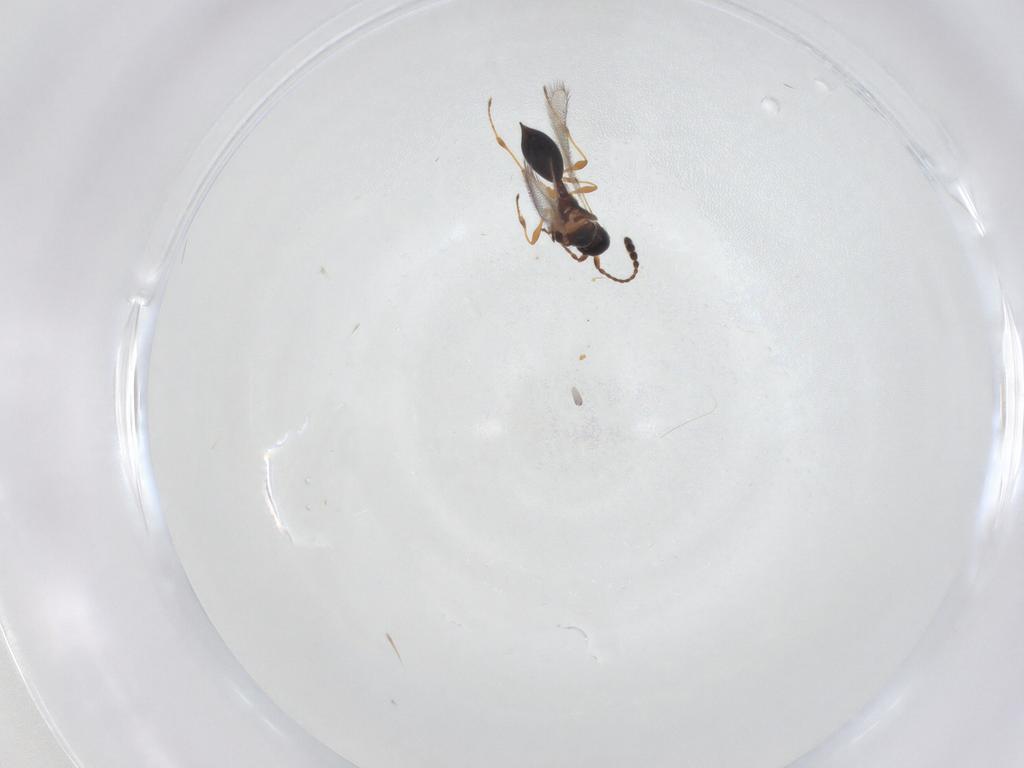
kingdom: Animalia
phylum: Arthropoda
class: Insecta
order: Hymenoptera
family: Diapriidae
